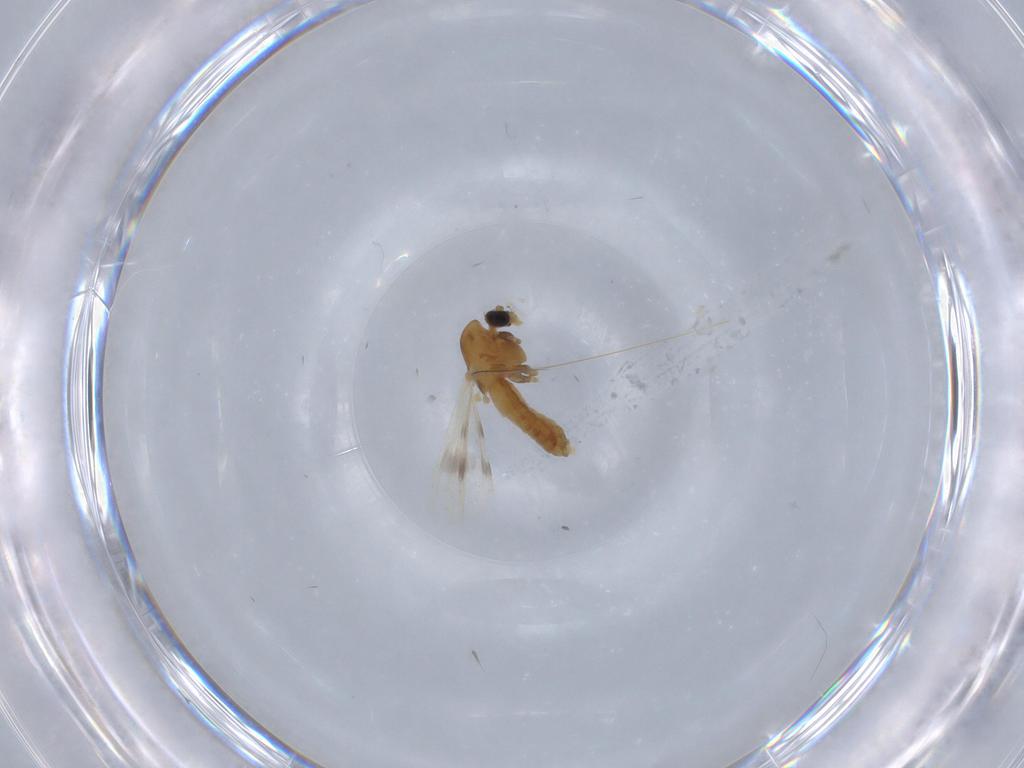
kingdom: Animalia
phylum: Arthropoda
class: Insecta
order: Diptera
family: Chironomidae
